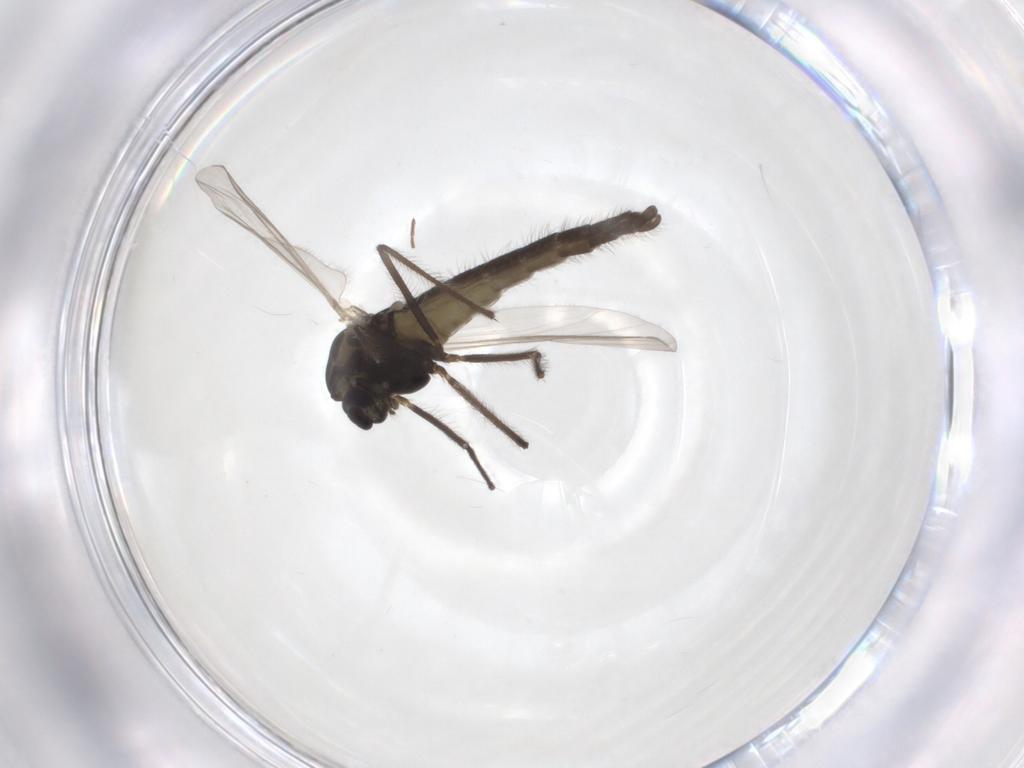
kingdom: Animalia
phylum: Arthropoda
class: Insecta
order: Diptera
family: Chironomidae
